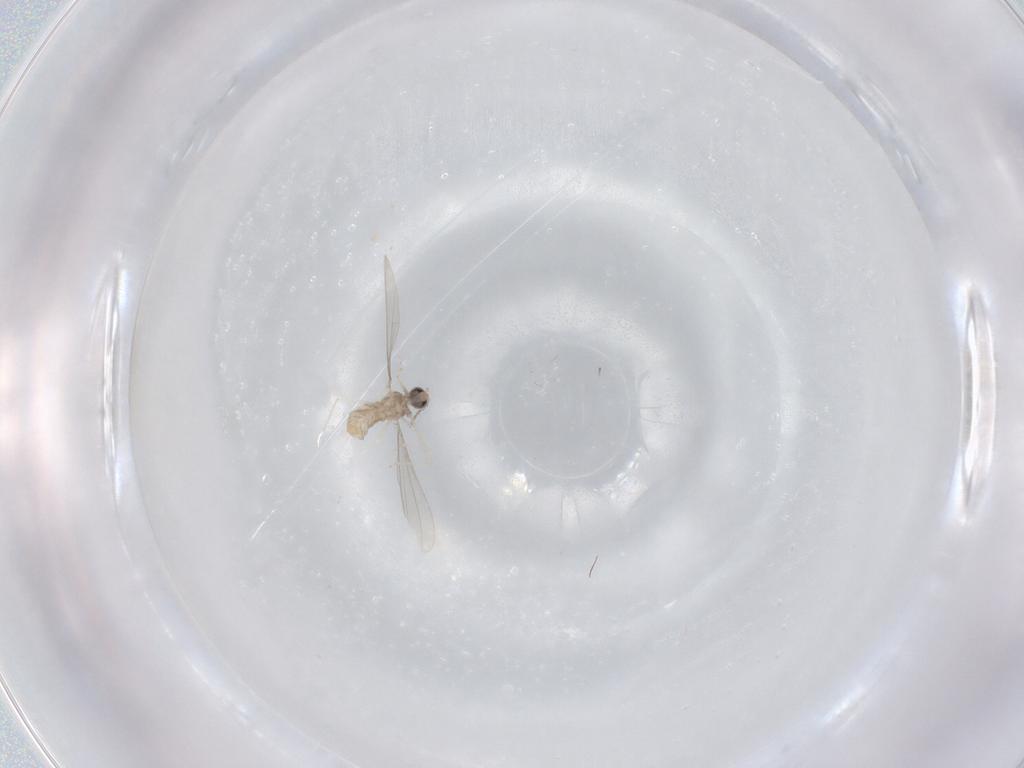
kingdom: Animalia
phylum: Arthropoda
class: Insecta
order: Diptera
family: Cecidomyiidae
